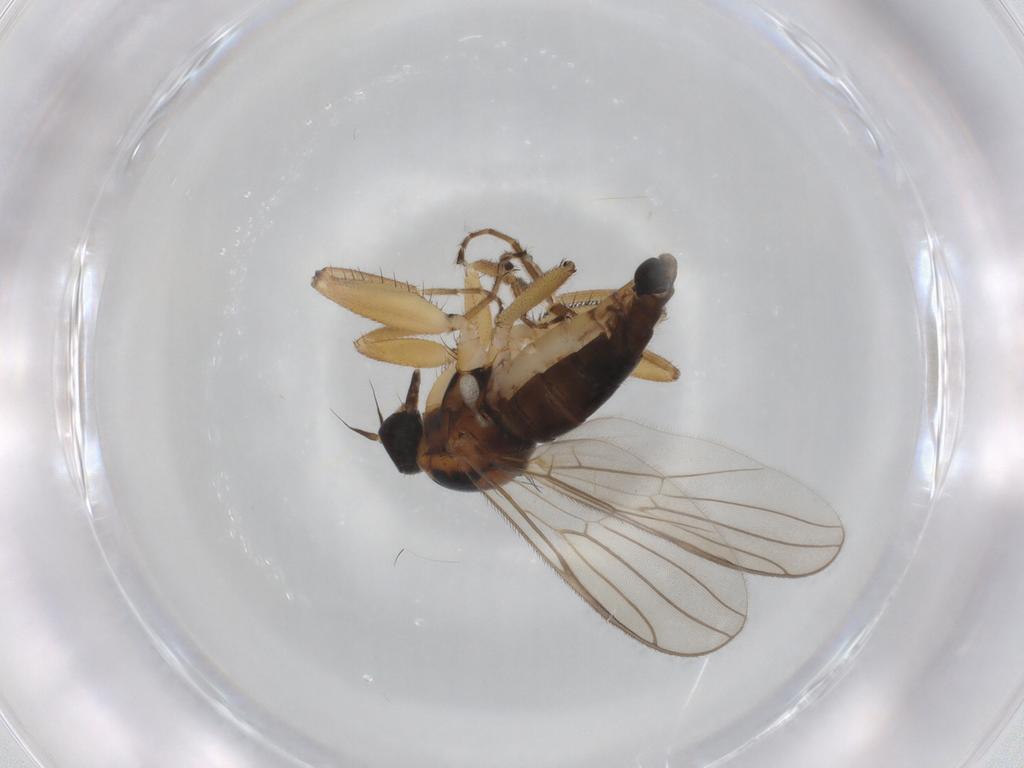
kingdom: Animalia
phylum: Arthropoda
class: Insecta
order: Diptera
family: Hybotidae
